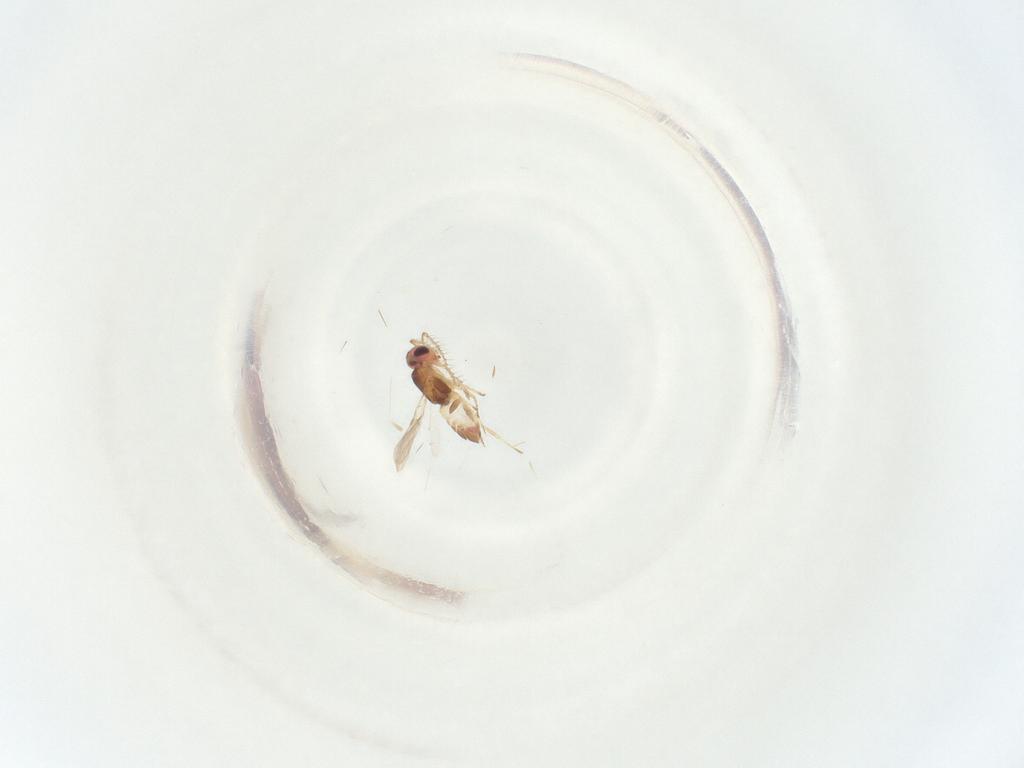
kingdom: Animalia
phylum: Arthropoda
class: Insecta
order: Hymenoptera
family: Encyrtidae
